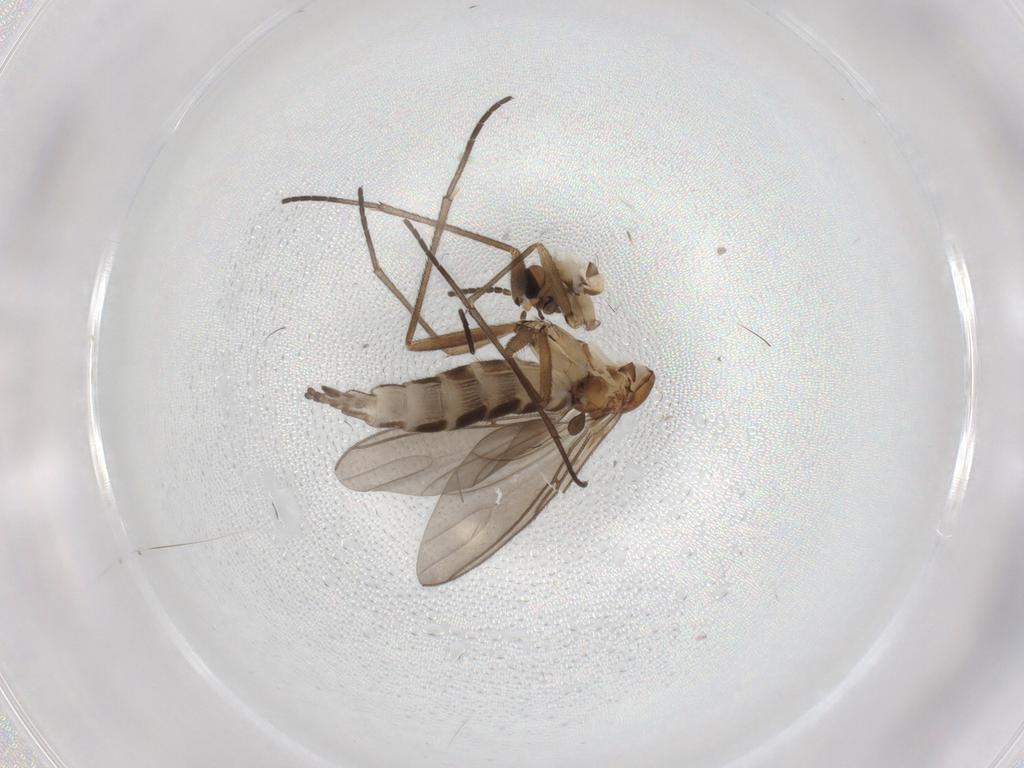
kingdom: Animalia
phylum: Arthropoda
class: Insecta
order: Diptera
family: Sciaridae
